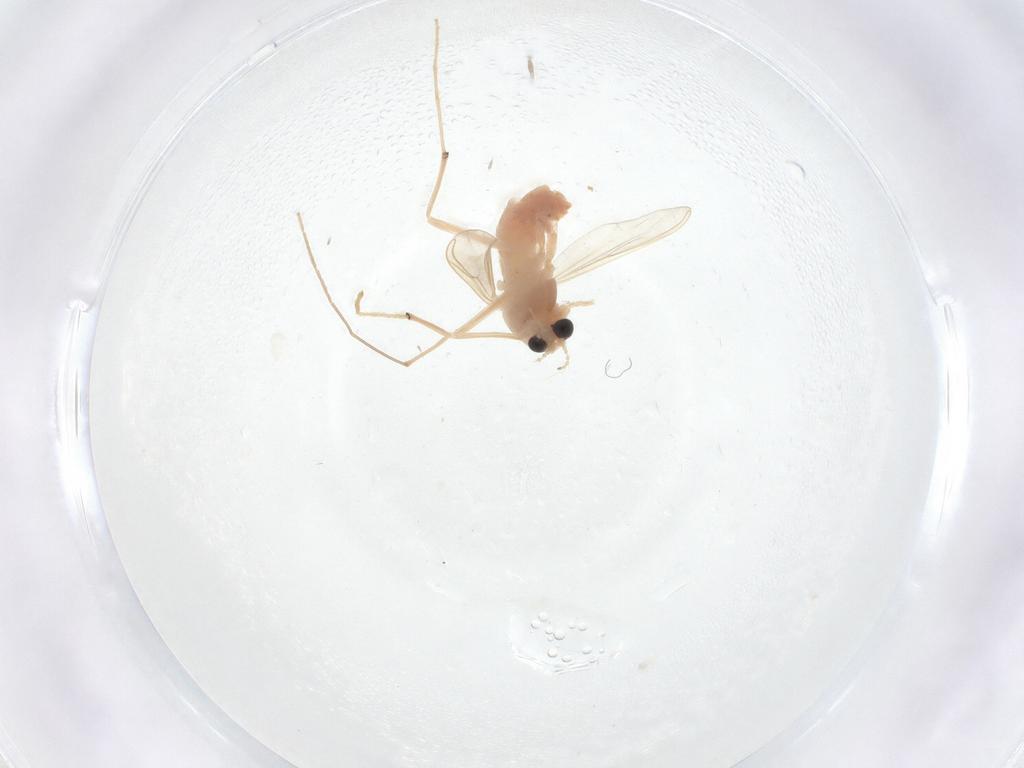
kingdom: Animalia
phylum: Arthropoda
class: Insecta
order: Diptera
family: Chironomidae
